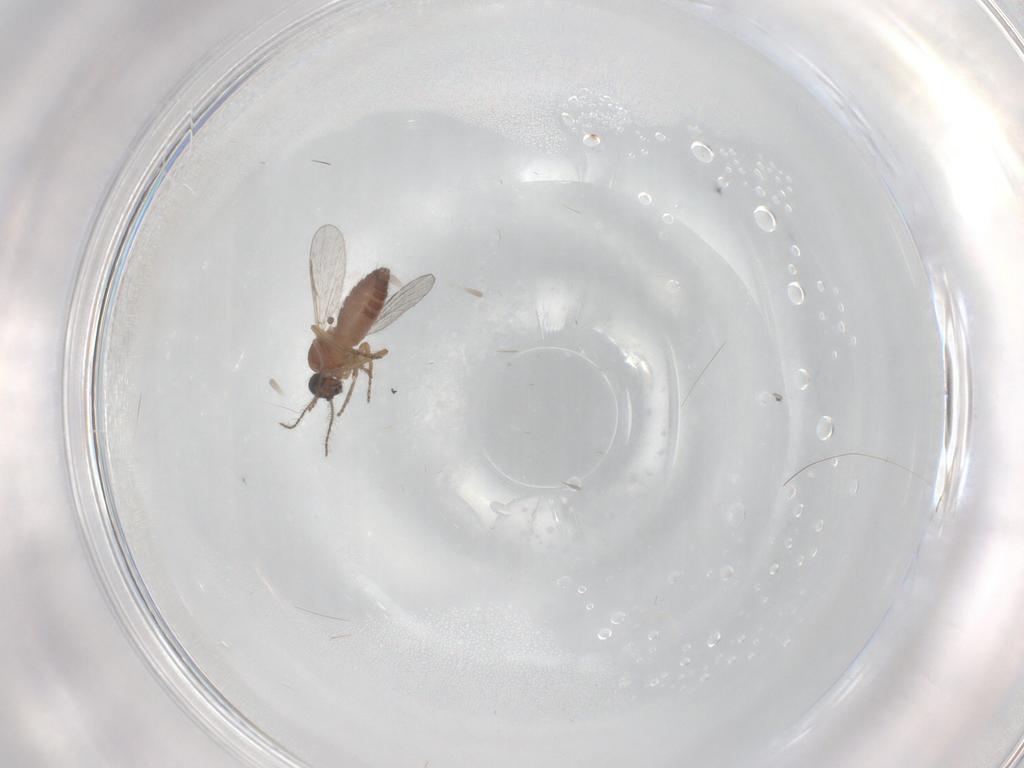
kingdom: Animalia
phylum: Arthropoda
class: Insecta
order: Diptera
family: Ceratopogonidae
